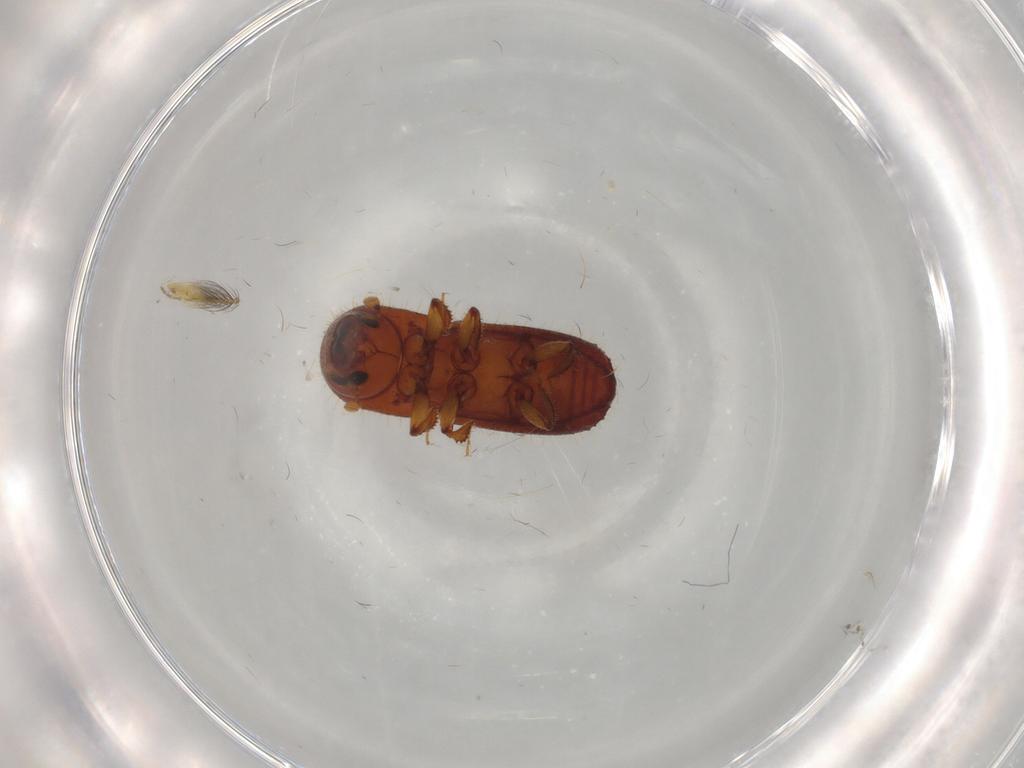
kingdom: Animalia
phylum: Arthropoda
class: Insecta
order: Coleoptera
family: Curculionidae
